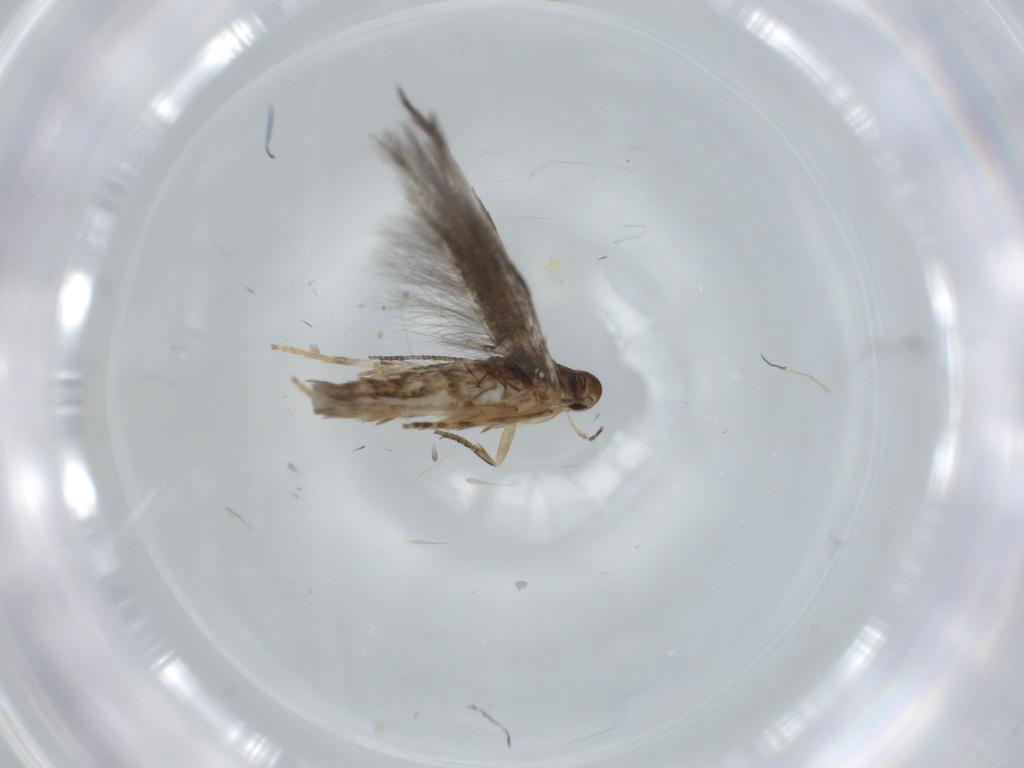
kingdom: Animalia
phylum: Arthropoda
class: Insecta
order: Lepidoptera
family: Gelechiidae
